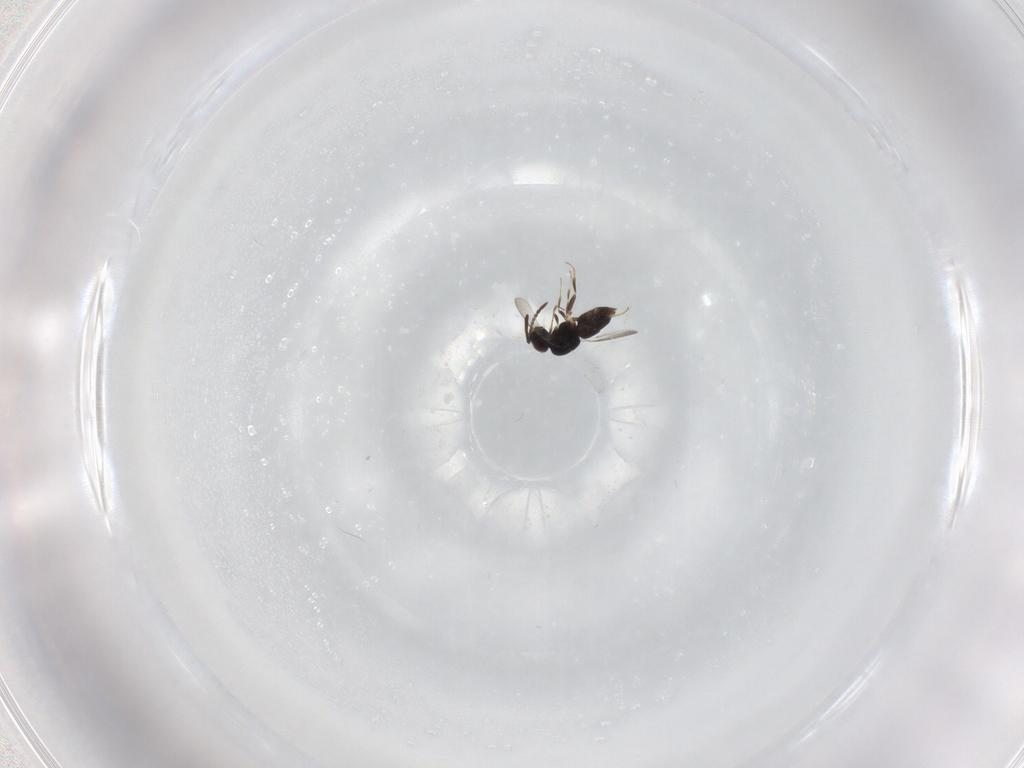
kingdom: Animalia
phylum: Arthropoda
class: Insecta
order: Hymenoptera
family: Ceraphronidae
